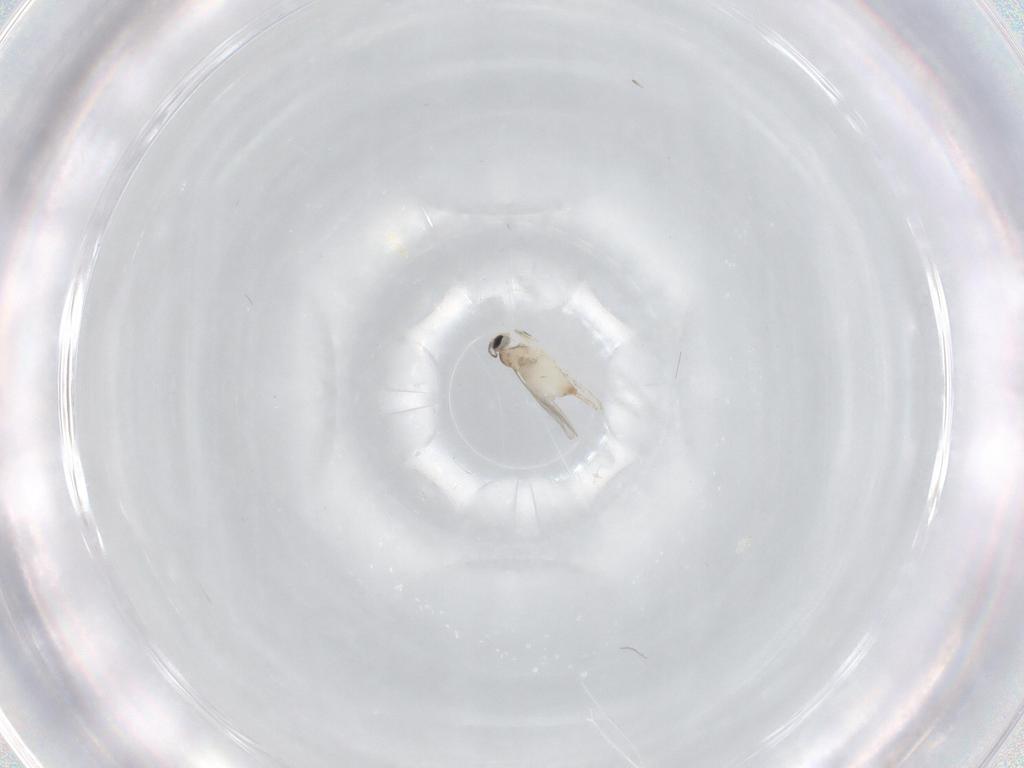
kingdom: Animalia
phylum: Arthropoda
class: Insecta
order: Diptera
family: Cecidomyiidae
